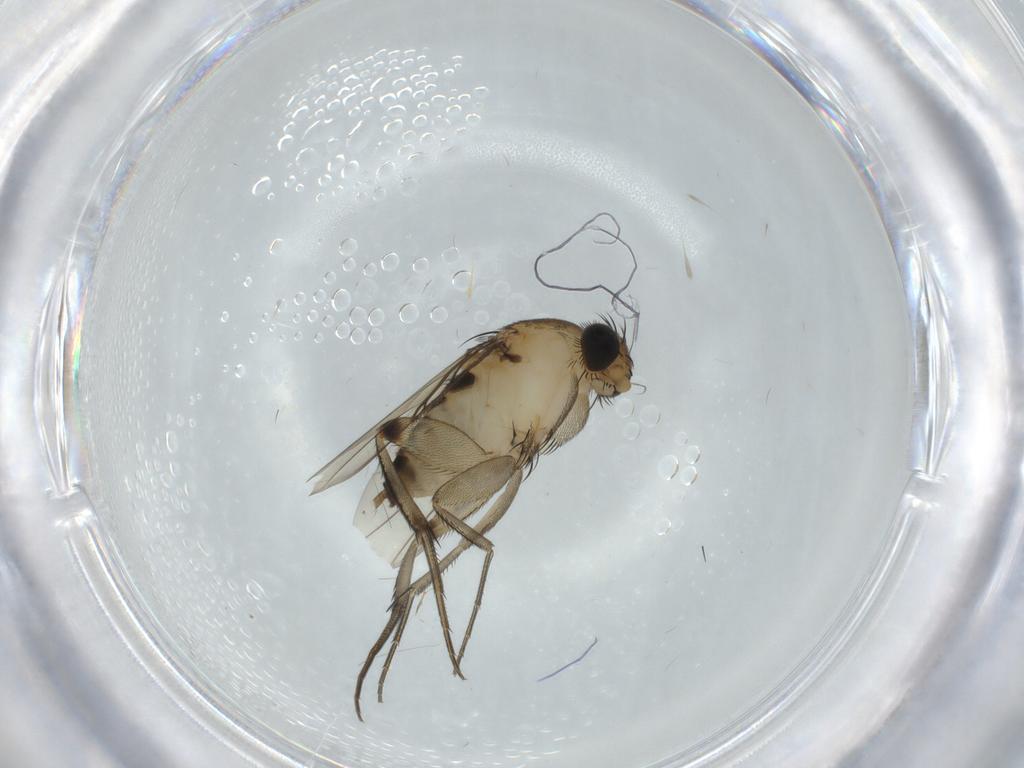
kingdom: Animalia
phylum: Arthropoda
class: Insecta
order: Diptera
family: Phoridae
